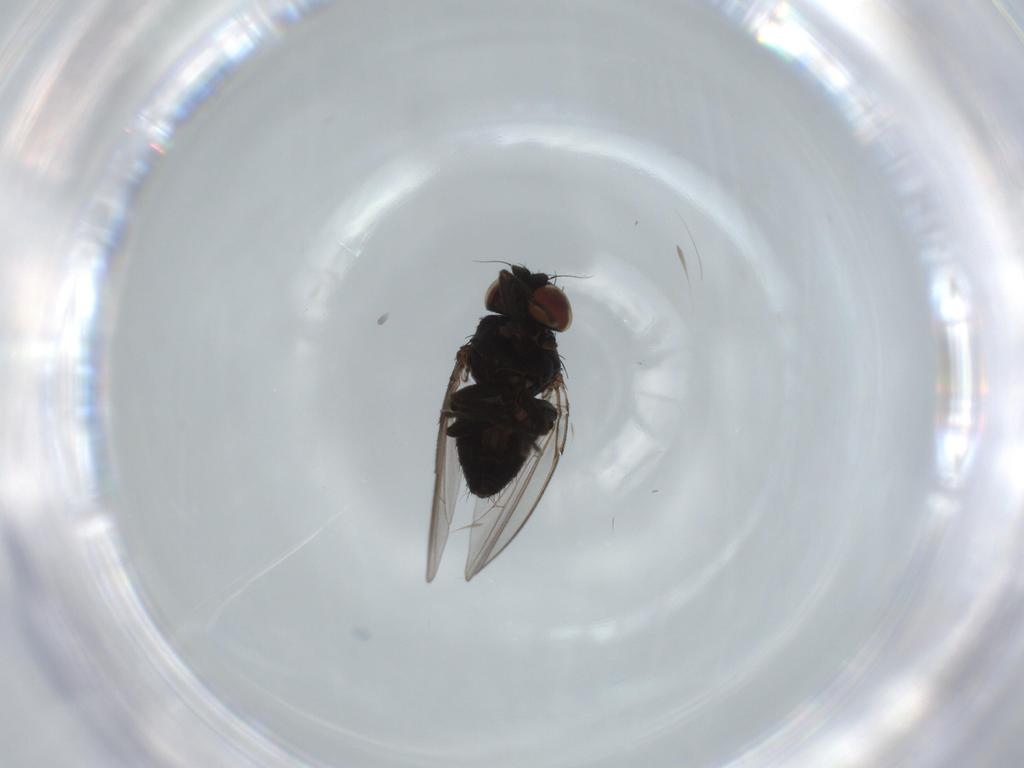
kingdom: Animalia
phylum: Arthropoda
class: Insecta
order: Diptera
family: Milichiidae
